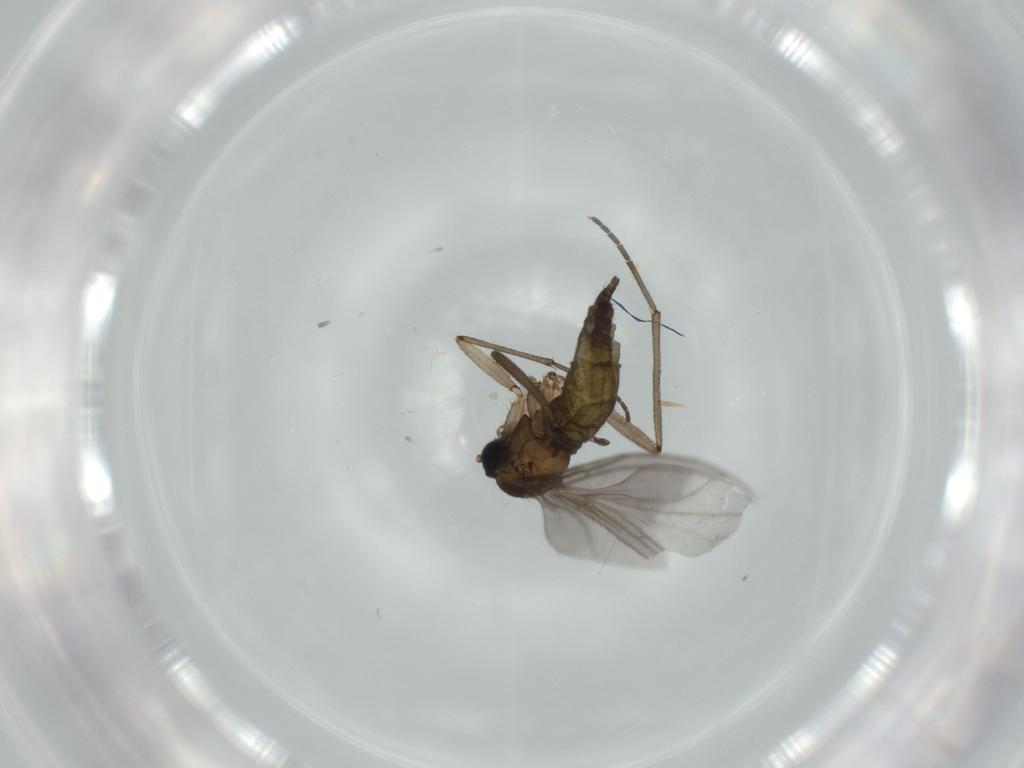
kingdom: Animalia
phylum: Arthropoda
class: Insecta
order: Diptera
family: Sciaridae
